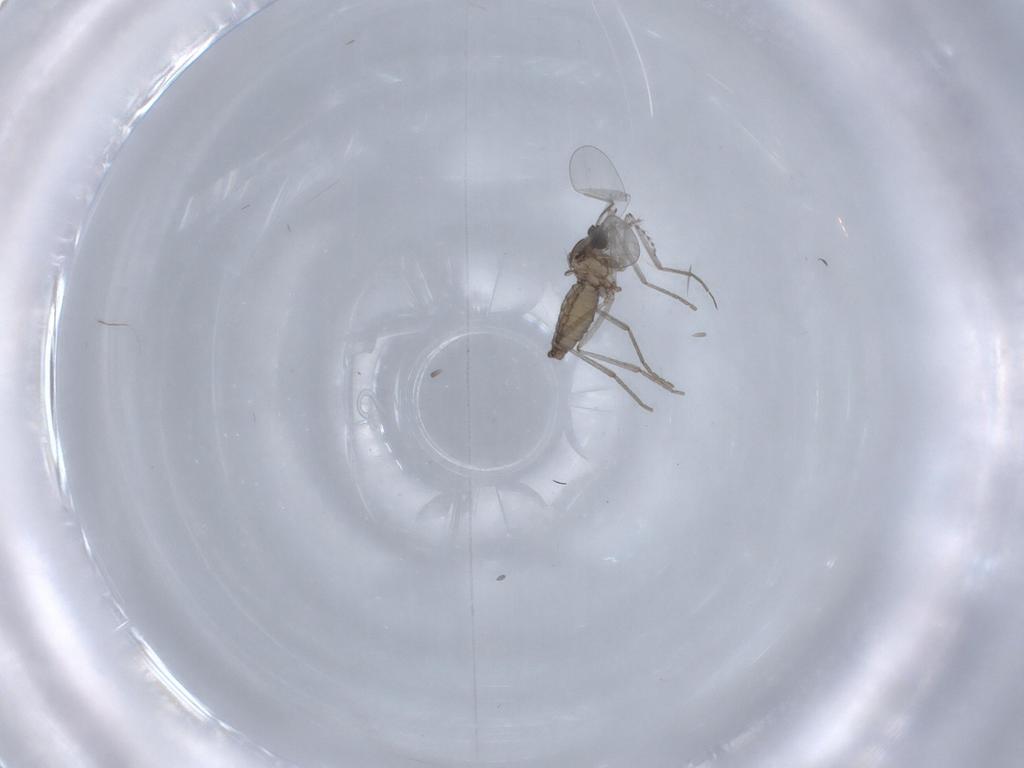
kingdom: Animalia
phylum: Arthropoda
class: Insecta
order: Diptera
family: Cecidomyiidae
